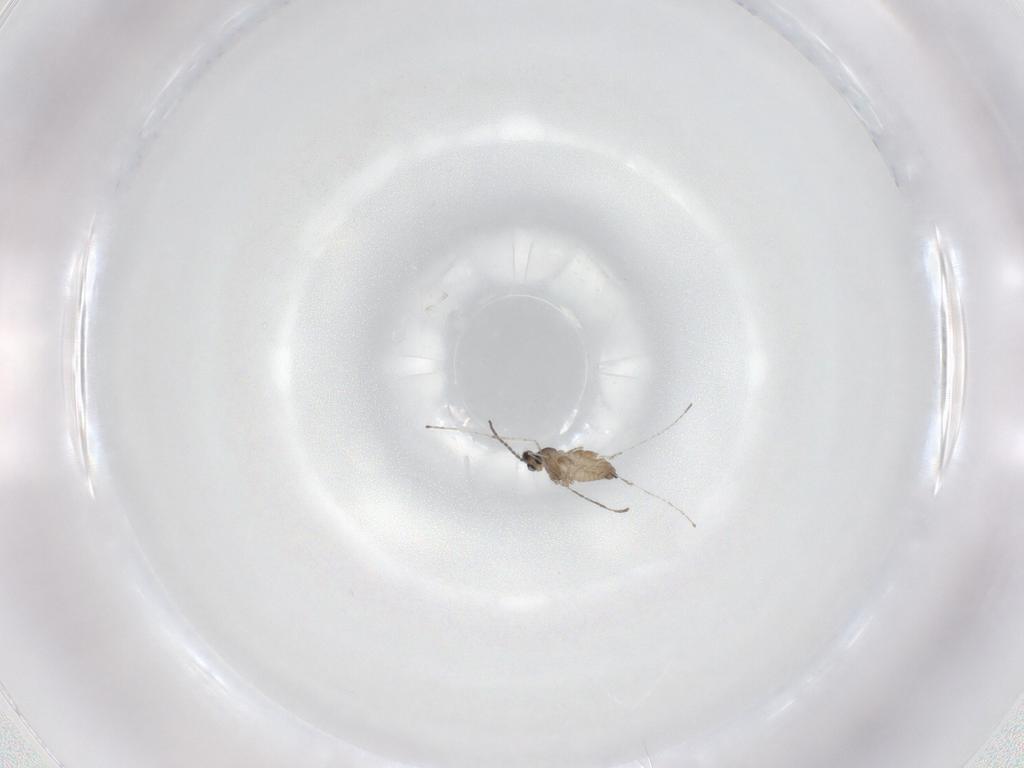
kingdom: Animalia
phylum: Arthropoda
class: Insecta
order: Diptera
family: Cecidomyiidae
